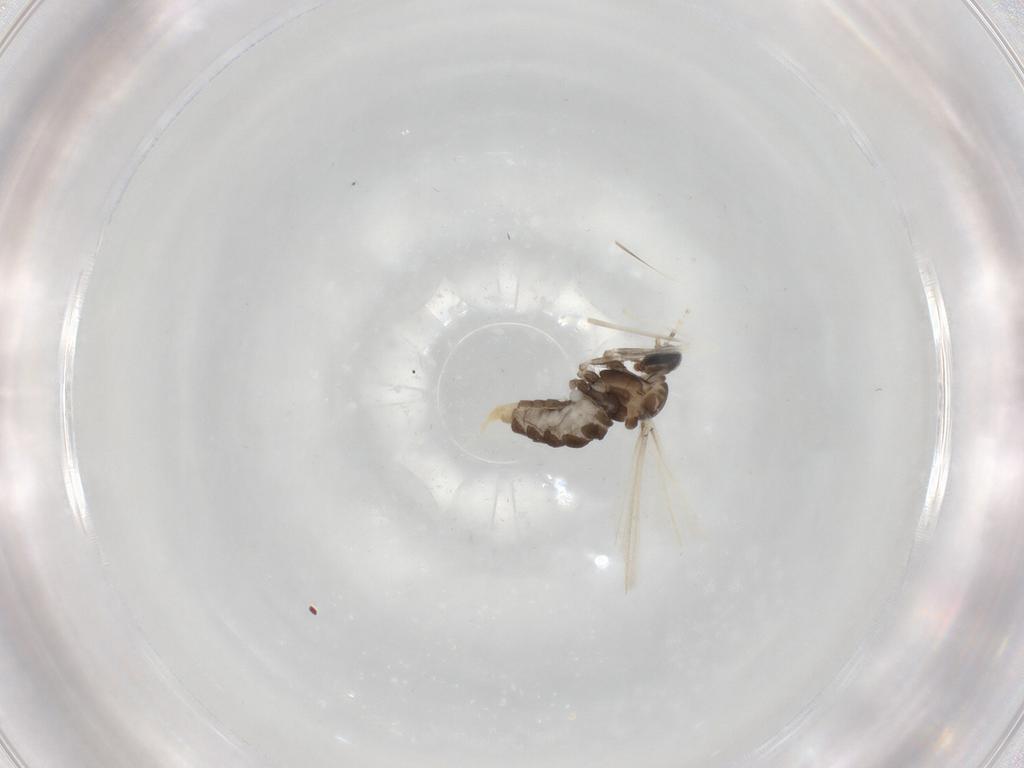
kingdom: Animalia
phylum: Arthropoda
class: Insecta
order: Diptera
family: Cecidomyiidae
